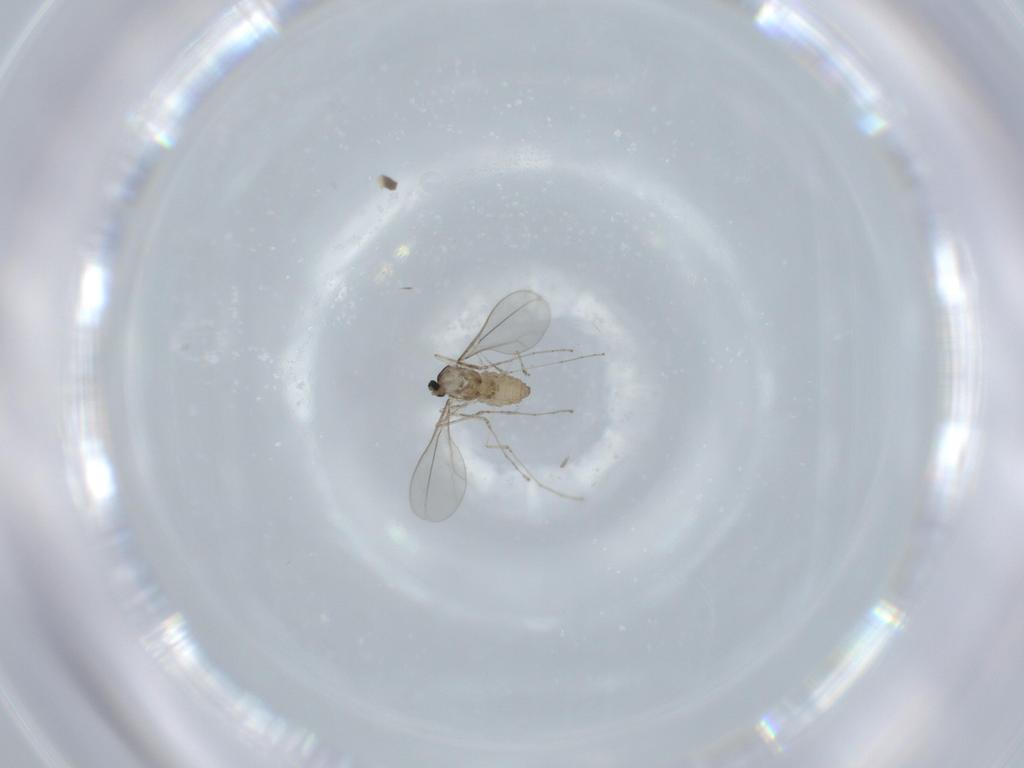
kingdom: Animalia
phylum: Arthropoda
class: Insecta
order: Diptera
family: Cecidomyiidae
